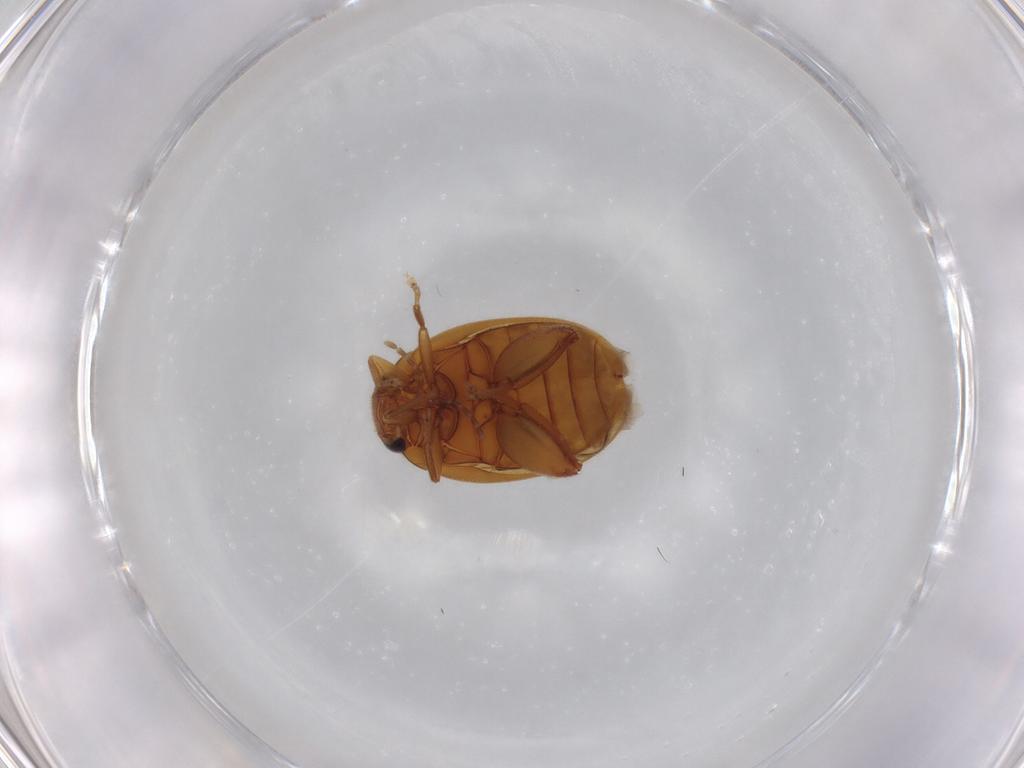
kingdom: Animalia
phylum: Arthropoda
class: Insecta
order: Coleoptera
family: Scirtidae
